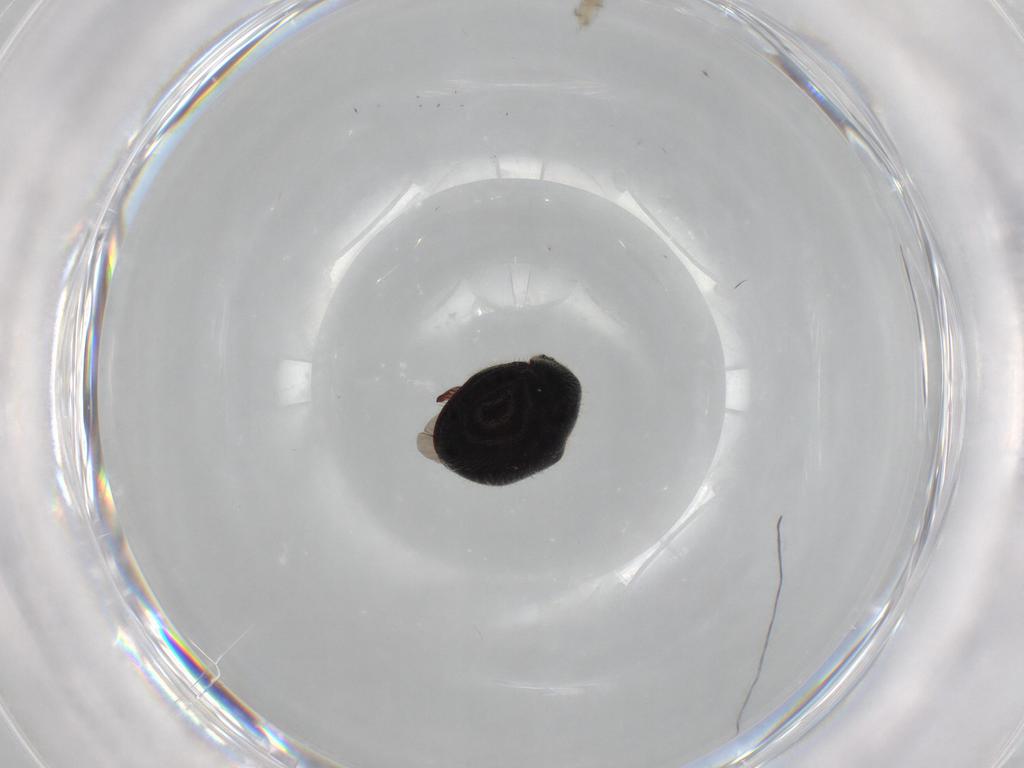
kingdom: Animalia
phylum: Arthropoda
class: Insecta
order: Coleoptera
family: Ptinidae
